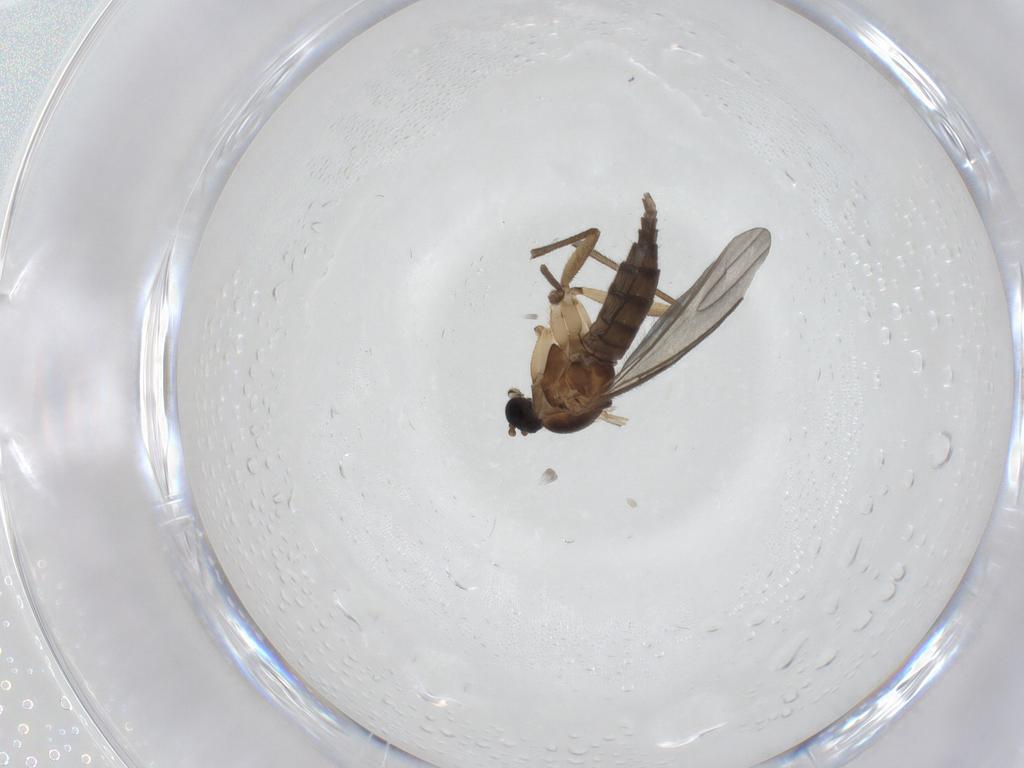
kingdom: Animalia
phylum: Arthropoda
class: Insecta
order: Diptera
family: Sciaridae
